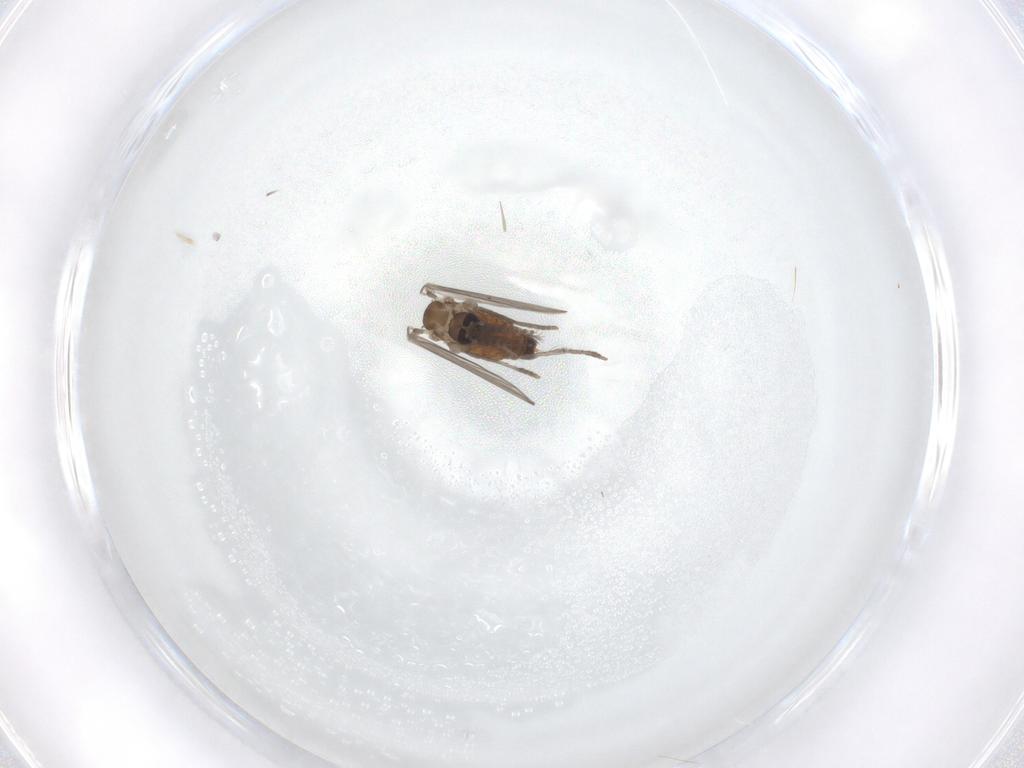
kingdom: Animalia
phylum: Arthropoda
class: Insecta
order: Diptera
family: Psychodidae
